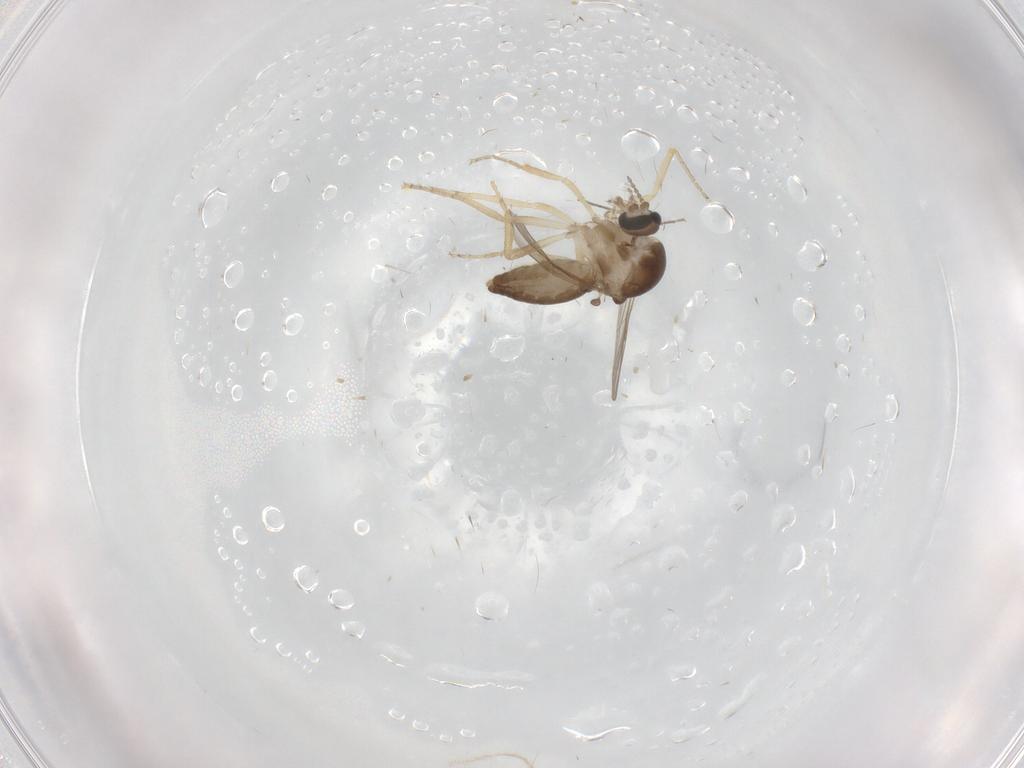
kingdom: Animalia
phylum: Arthropoda
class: Insecta
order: Diptera
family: Ceratopogonidae
